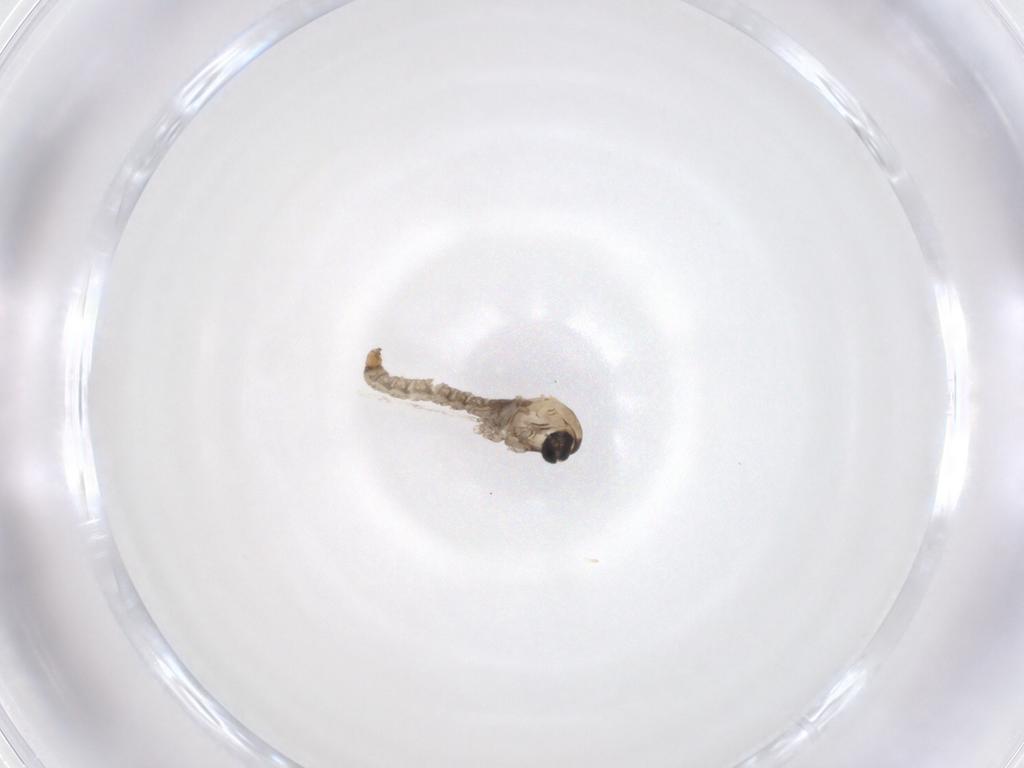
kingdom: Animalia
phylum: Arthropoda
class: Insecta
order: Diptera
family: Cecidomyiidae
